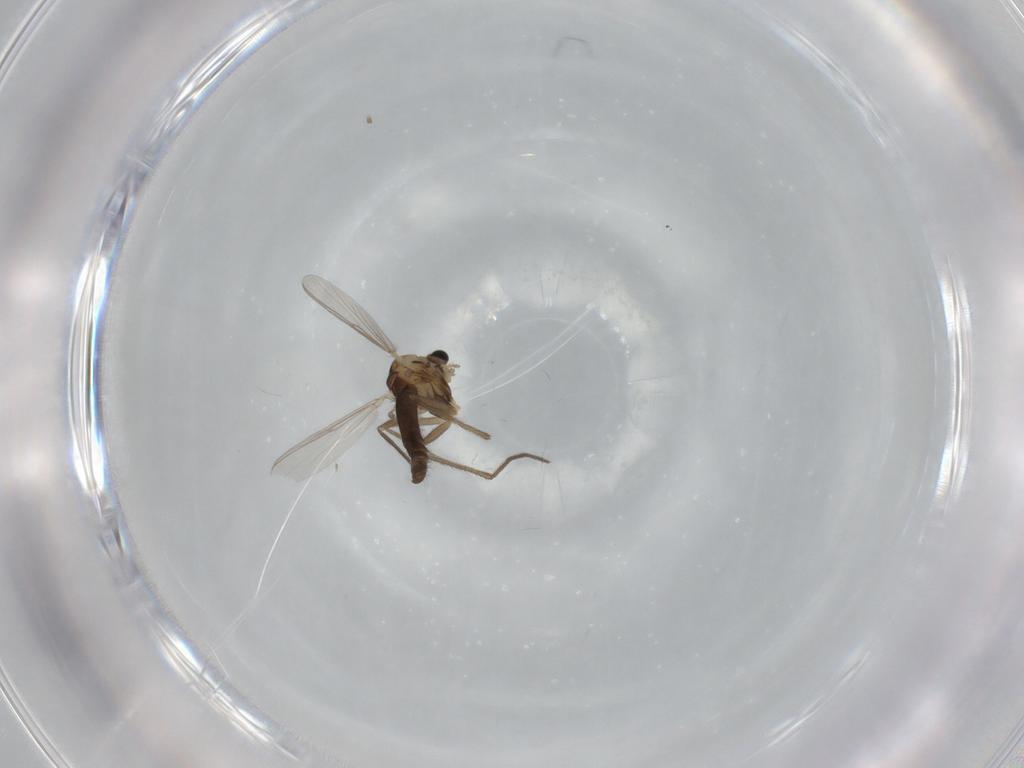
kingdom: Animalia
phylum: Arthropoda
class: Insecta
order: Diptera
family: Chironomidae
